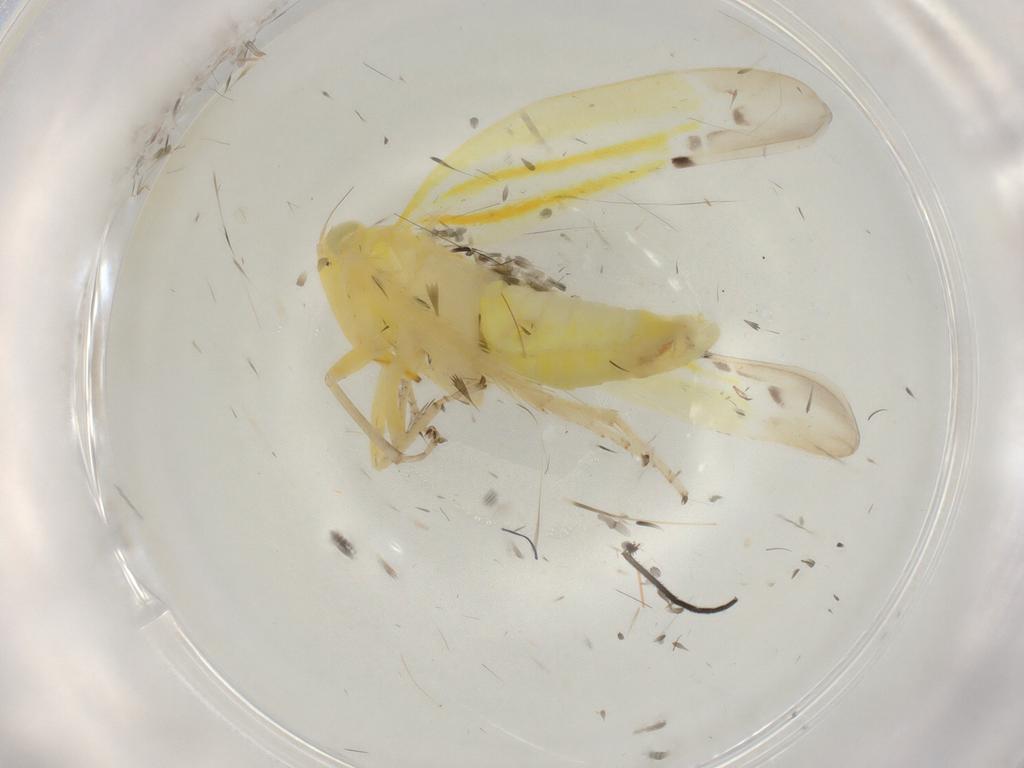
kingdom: Animalia
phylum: Arthropoda
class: Insecta
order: Hemiptera
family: Cicadellidae
